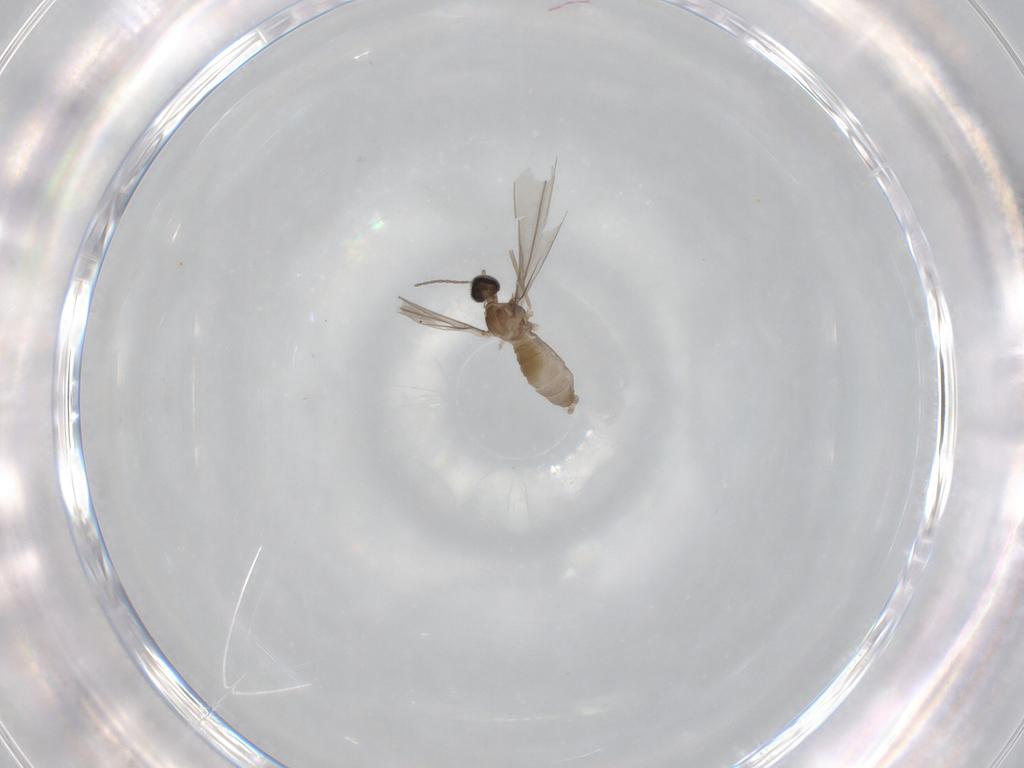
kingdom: Animalia
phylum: Arthropoda
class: Insecta
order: Diptera
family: Cecidomyiidae
